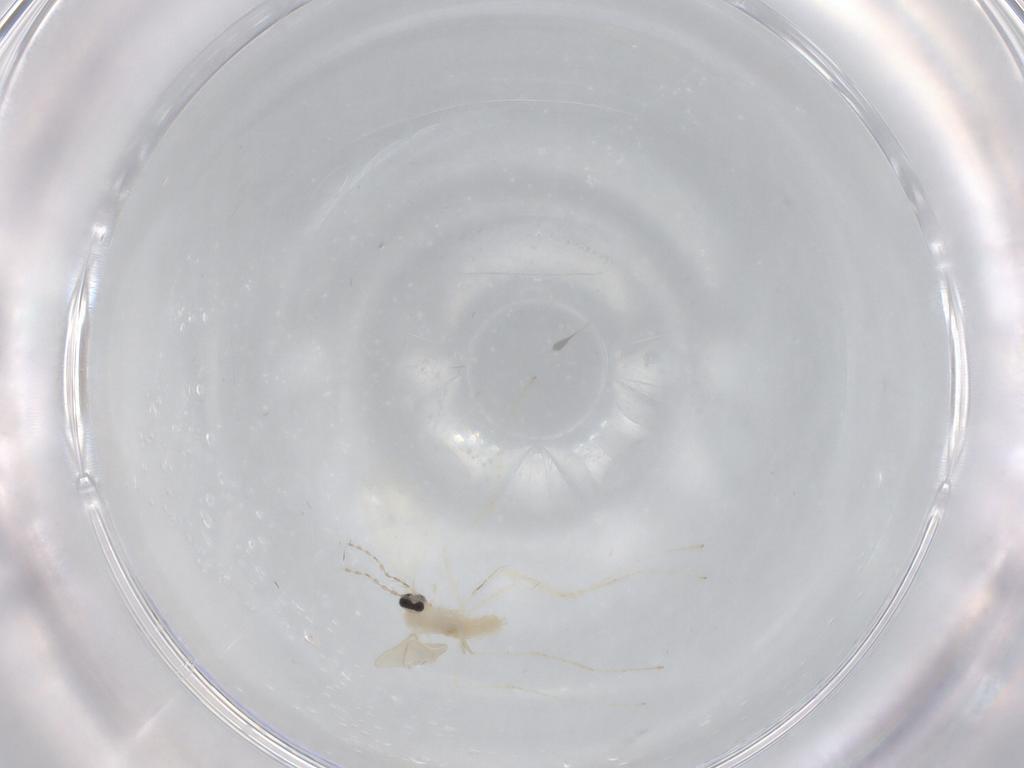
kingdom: Animalia
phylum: Arthropoda
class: Insecta
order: Diptera
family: Cecidomyiidae
